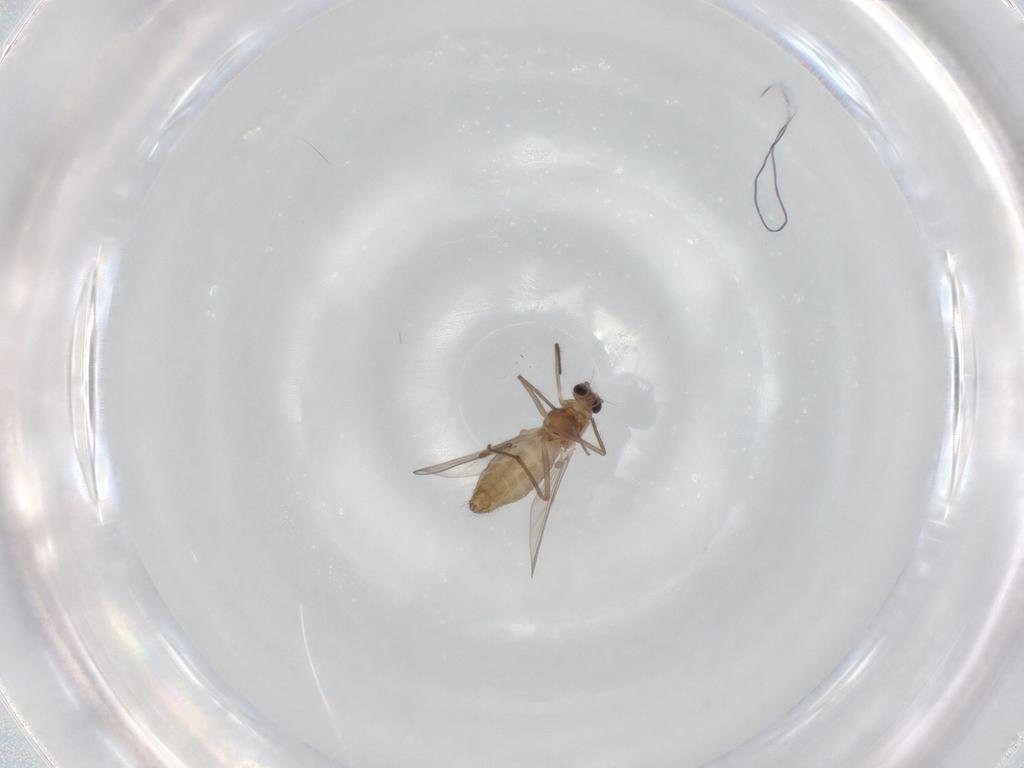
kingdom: Animalia
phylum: Arthropoda
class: Insecta
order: Diptera
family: Chironomidae
